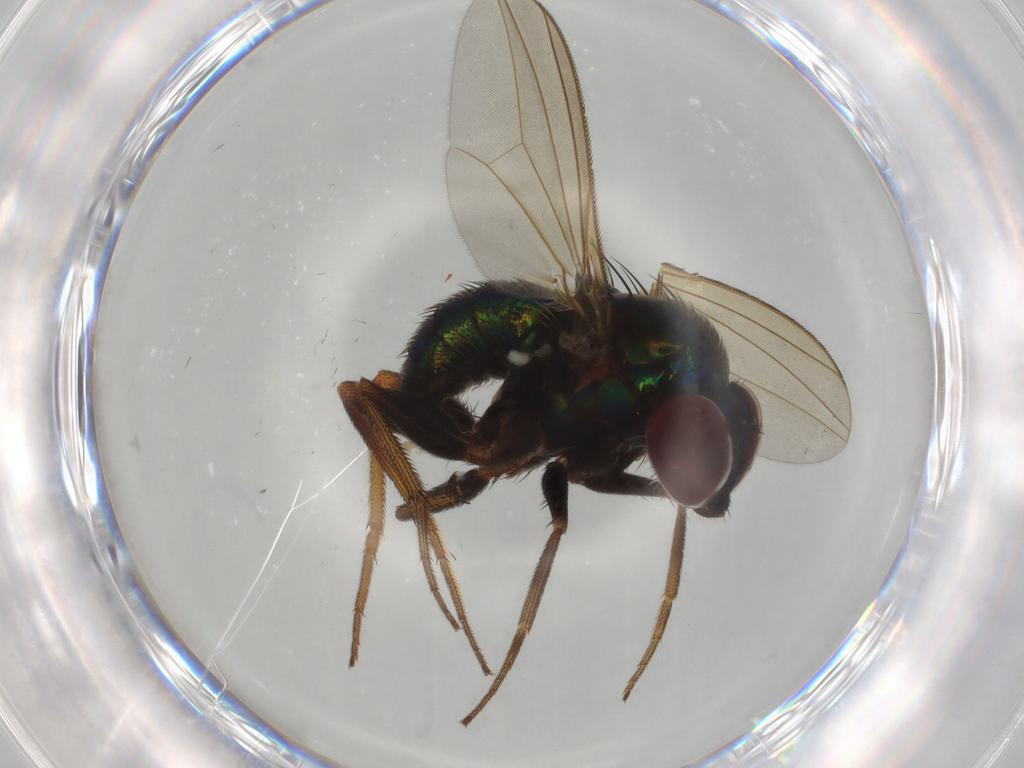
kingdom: Animalia
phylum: Arthropoda
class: Insecta
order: Diptera
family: Dolichopodidae
